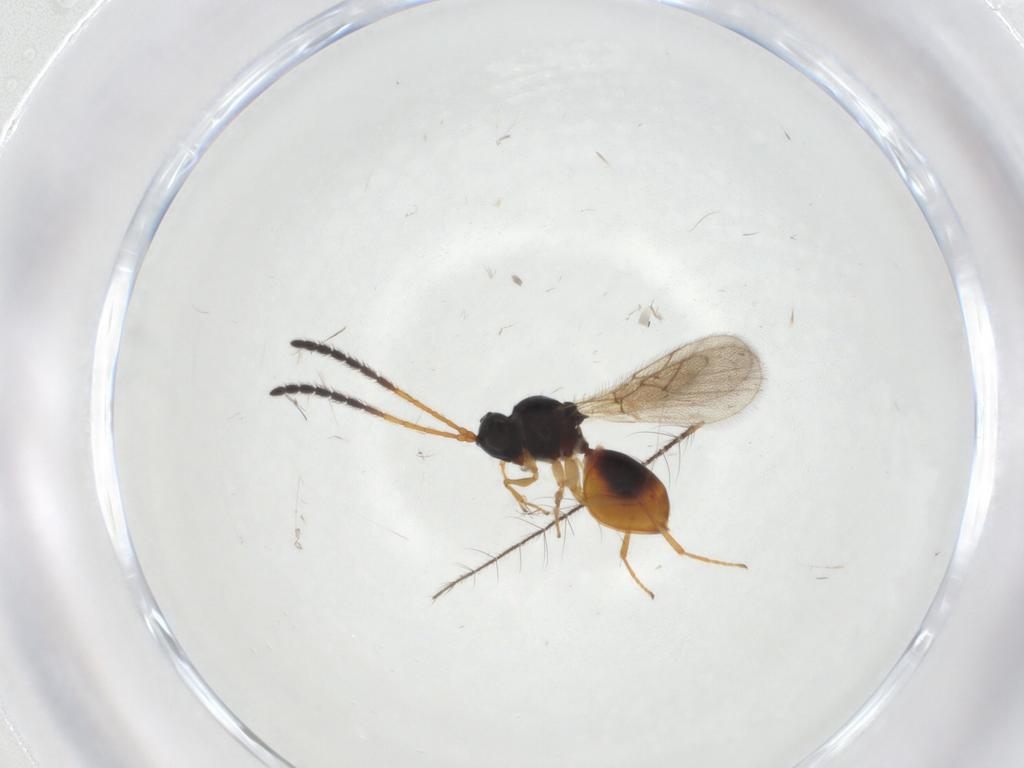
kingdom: Animalia
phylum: Arthropoda
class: Insecta
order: Hymenoptera
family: Figitidae
